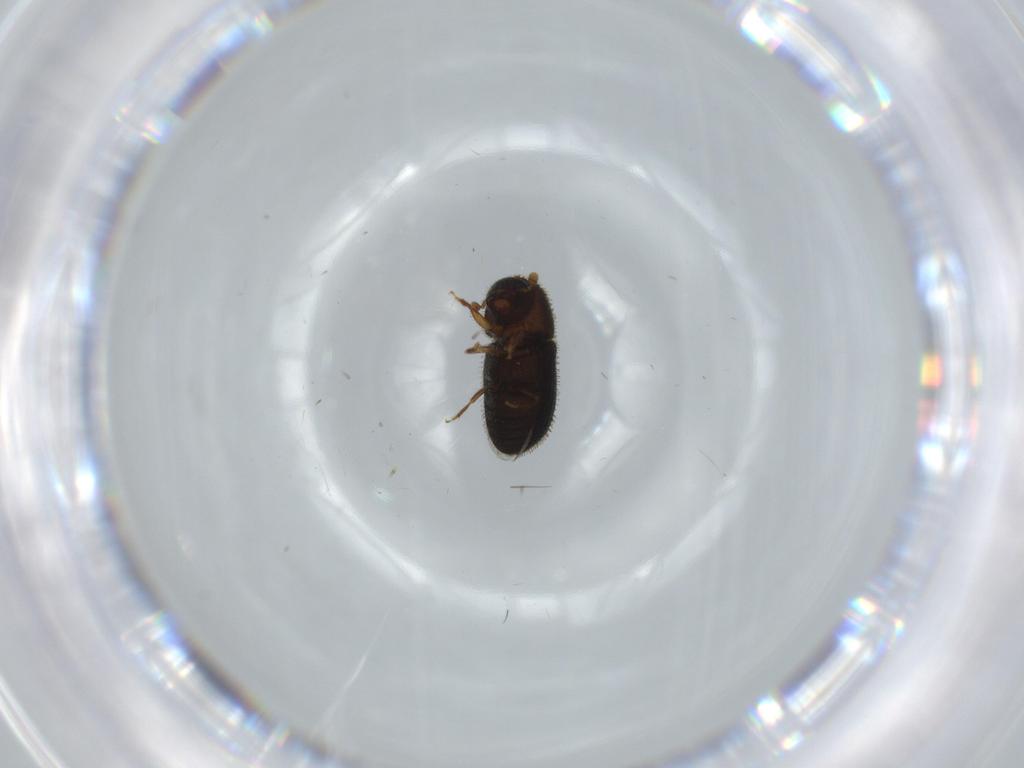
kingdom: Animalia
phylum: Arthropoda
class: Insecta
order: Coleoptera
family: Curculionidae
